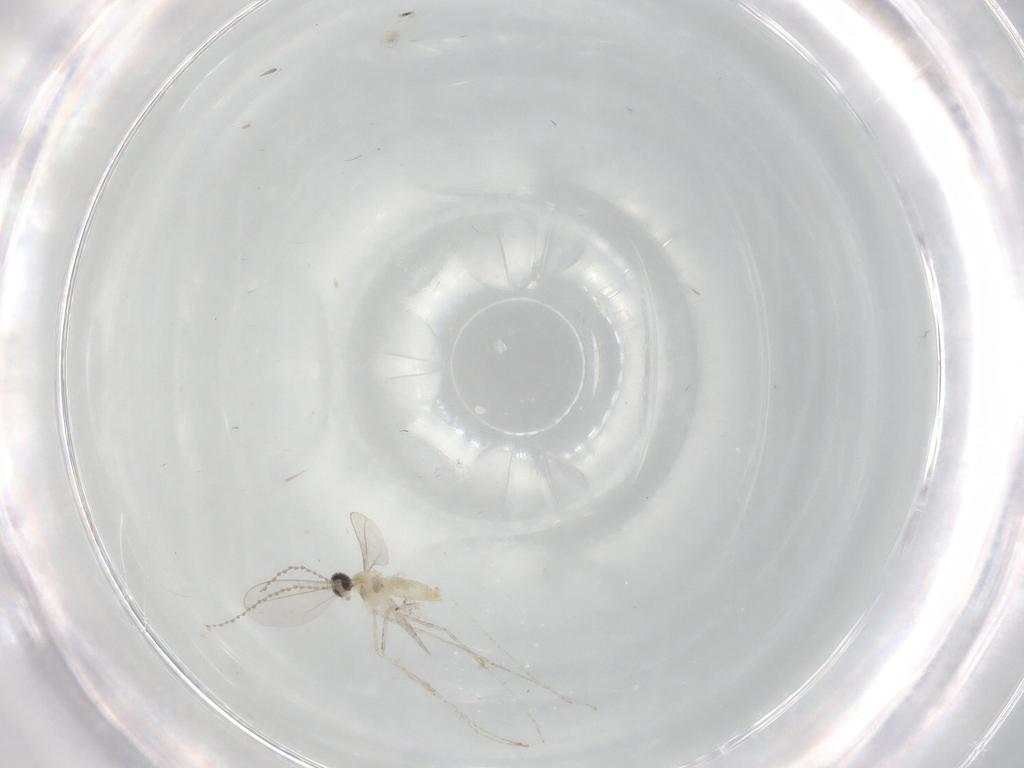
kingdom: Animalia
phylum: Arthropoda
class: Insecta
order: Diptera
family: Cecidomyiidae
